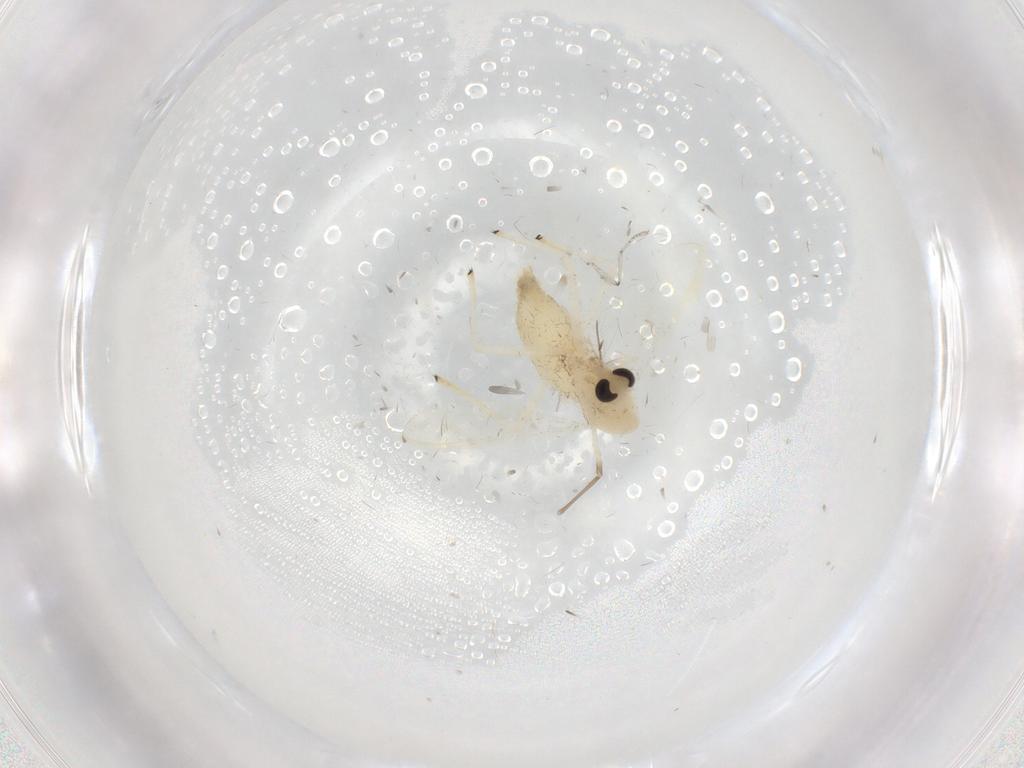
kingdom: Animalia
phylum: Arthropoda
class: Insecta
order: Diptera
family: Chironomidae
